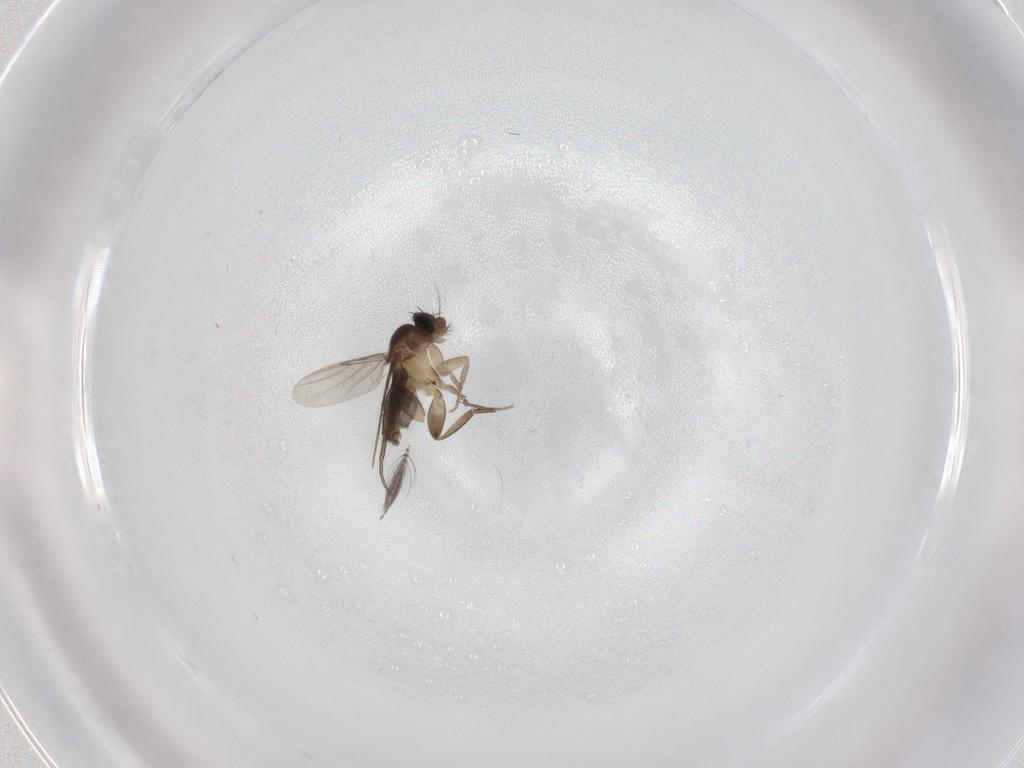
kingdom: Animalia
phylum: Arthropoda
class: Insecta
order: Diptera
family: Phoridae
